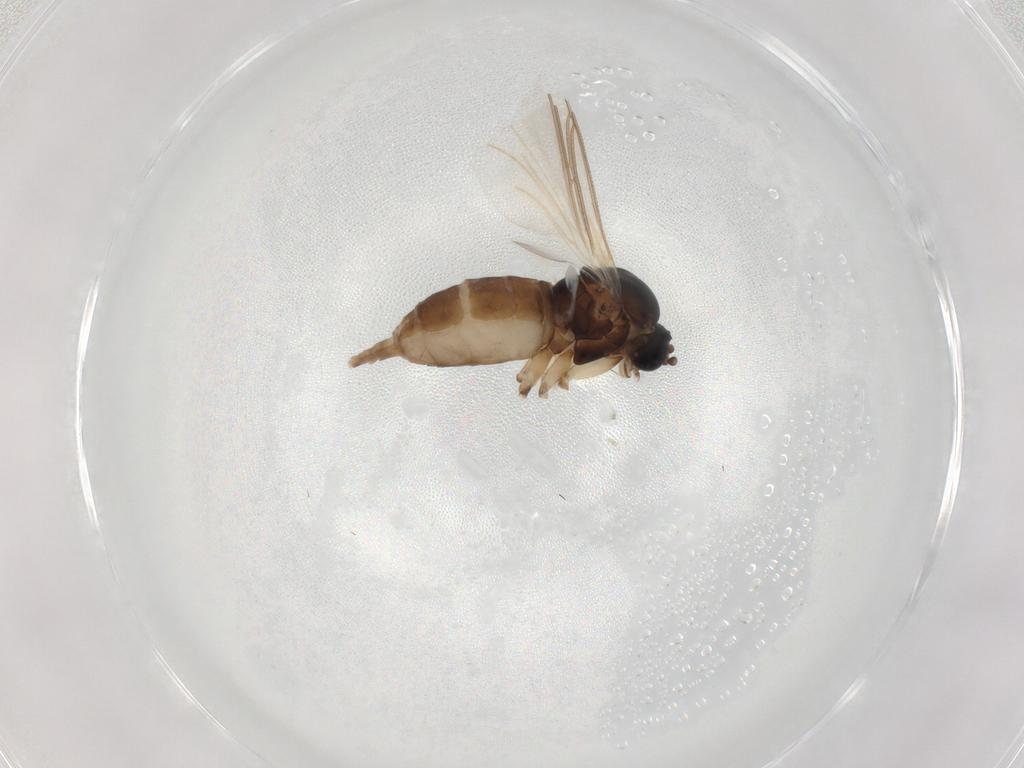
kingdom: Animalia
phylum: Arthropoda
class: Insecta
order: Diptera
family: Sciaridae
